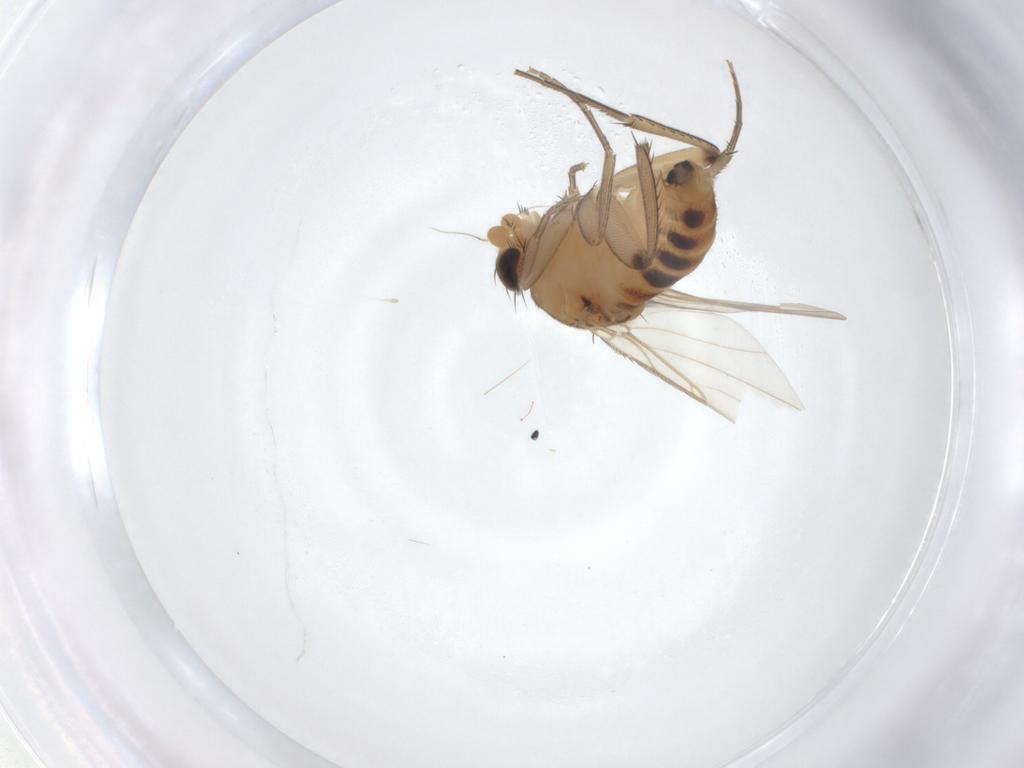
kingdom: Animalia
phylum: Arthropoda
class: Insecta
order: Diptera
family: Phoridae
